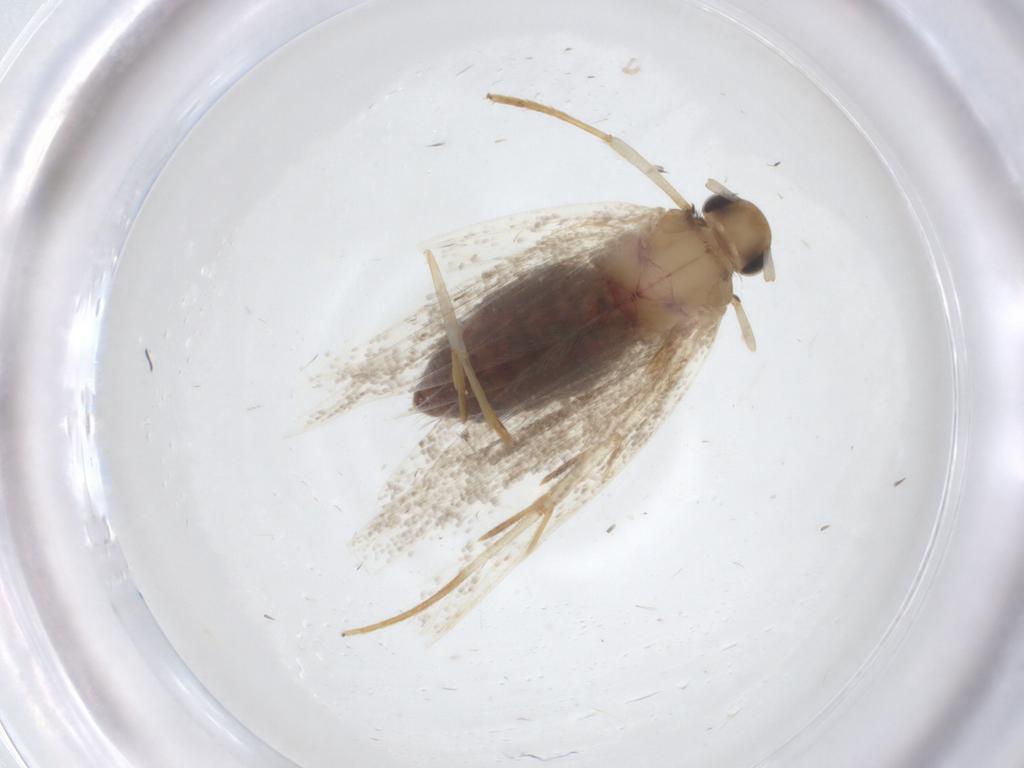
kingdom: Animalia
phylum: Arthropoda
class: Insecta
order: Lepidoptera
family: Lecithoceridae
